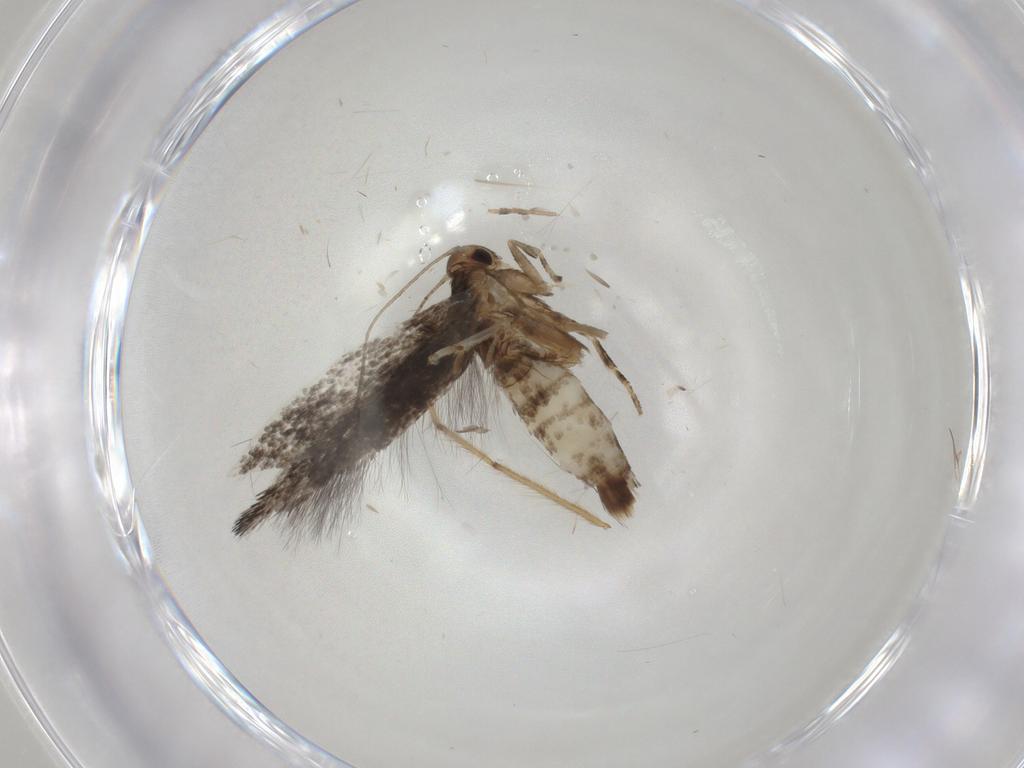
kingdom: Animalia
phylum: Arthropoda
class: Insecta
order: Lepidoptera
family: Elachistidae
